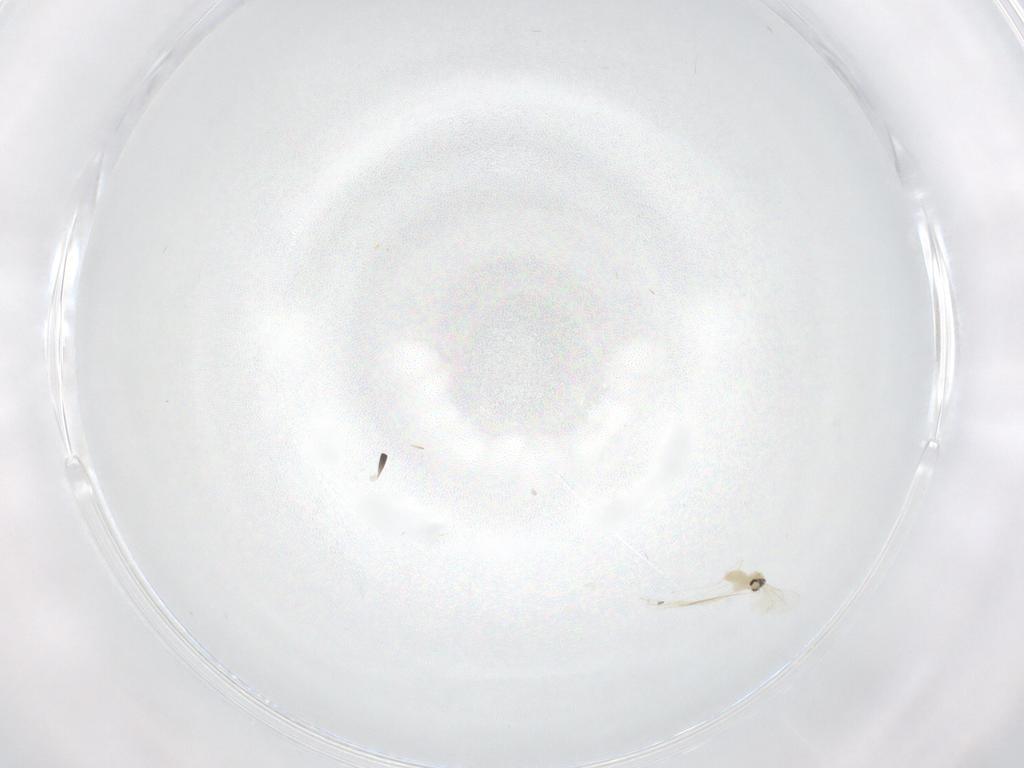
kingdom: Animalia
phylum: Arthropoda
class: Insecta
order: Diptera
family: Cecidomyiidae
